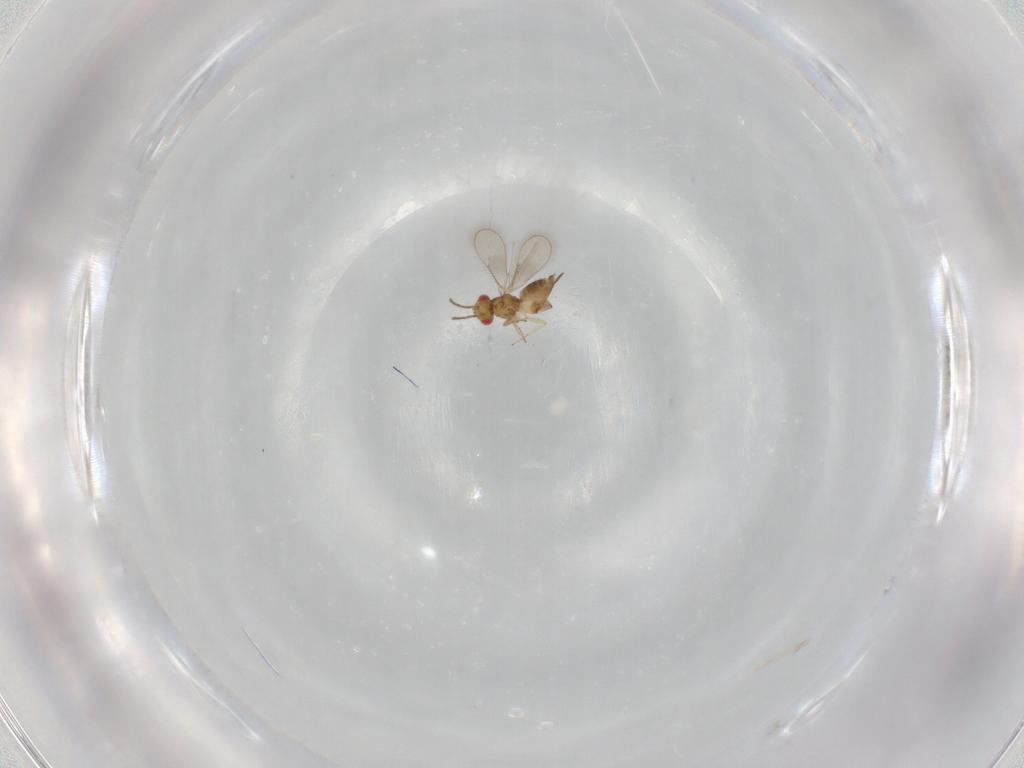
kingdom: Animalia
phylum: Arthropoda
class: Insecta
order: Hymenoptera
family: Eulophidae
